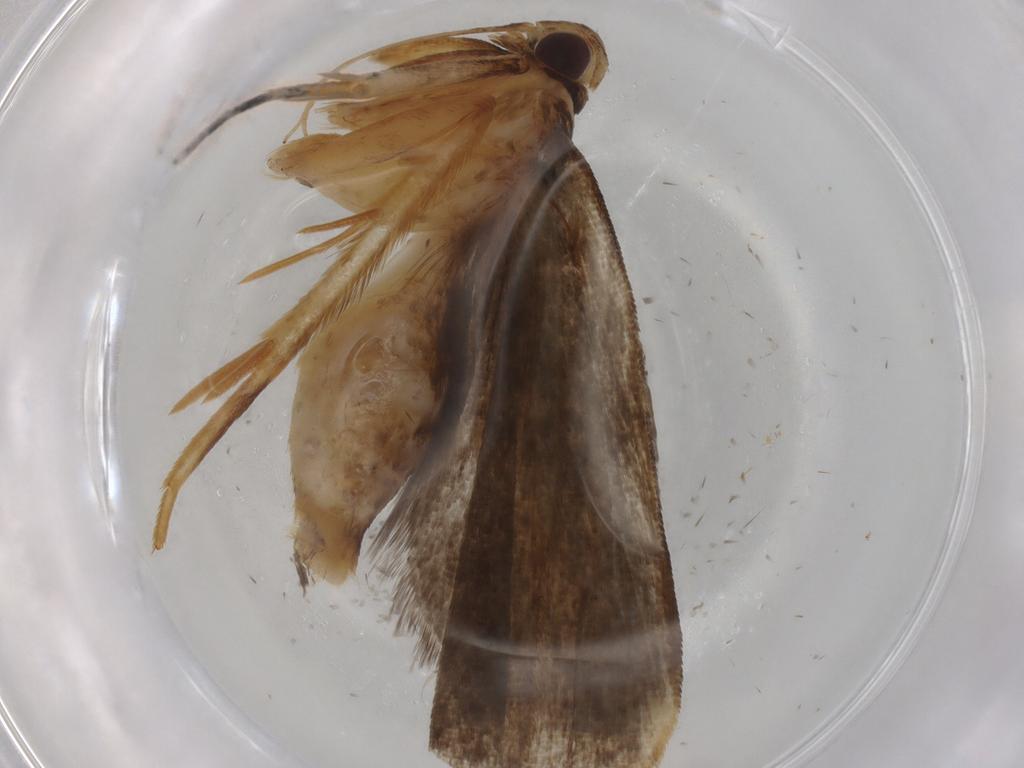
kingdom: Animalia
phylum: Arthropoda
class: Insecta
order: Lepidoptera
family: Gelechiidae
